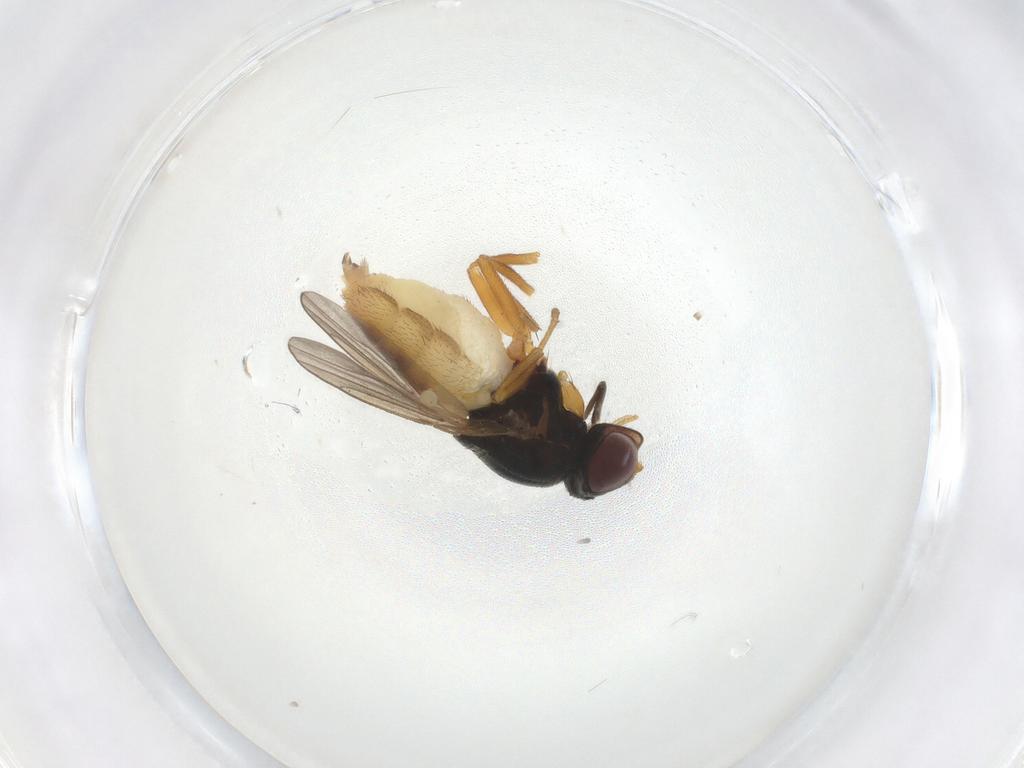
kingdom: Animalia
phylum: Arthropoda
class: Insecta
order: Diptera
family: Chloropidae
